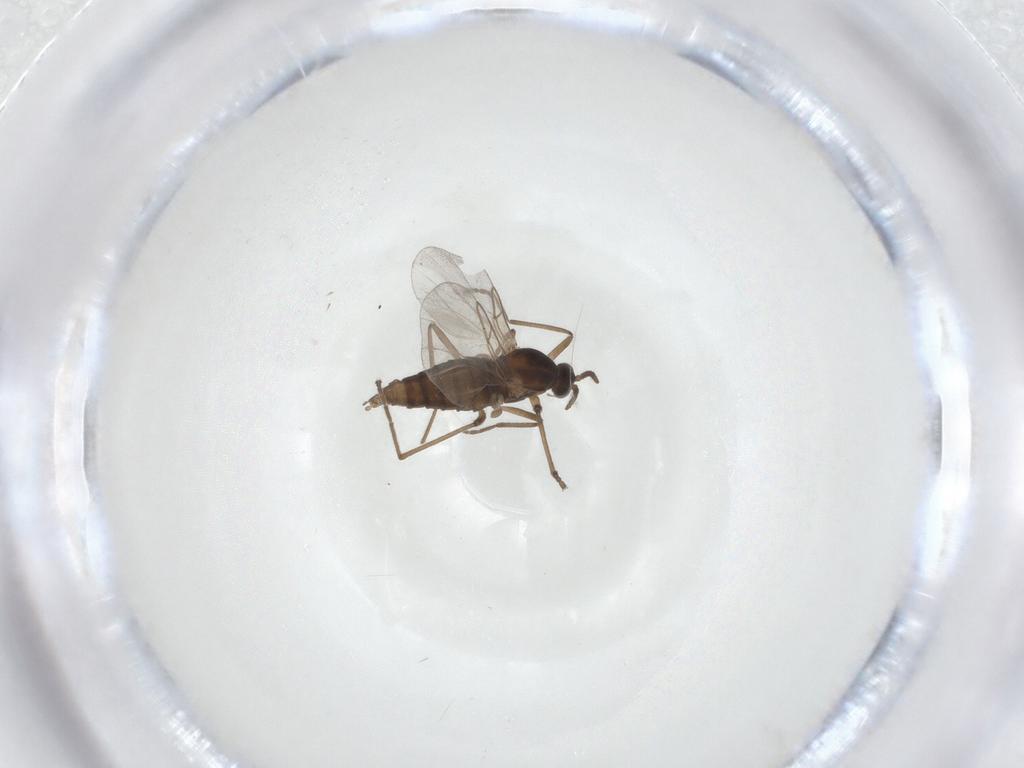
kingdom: Animalia
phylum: Arthropoda
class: Insecta
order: Diptera
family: Cecidomyiidae
